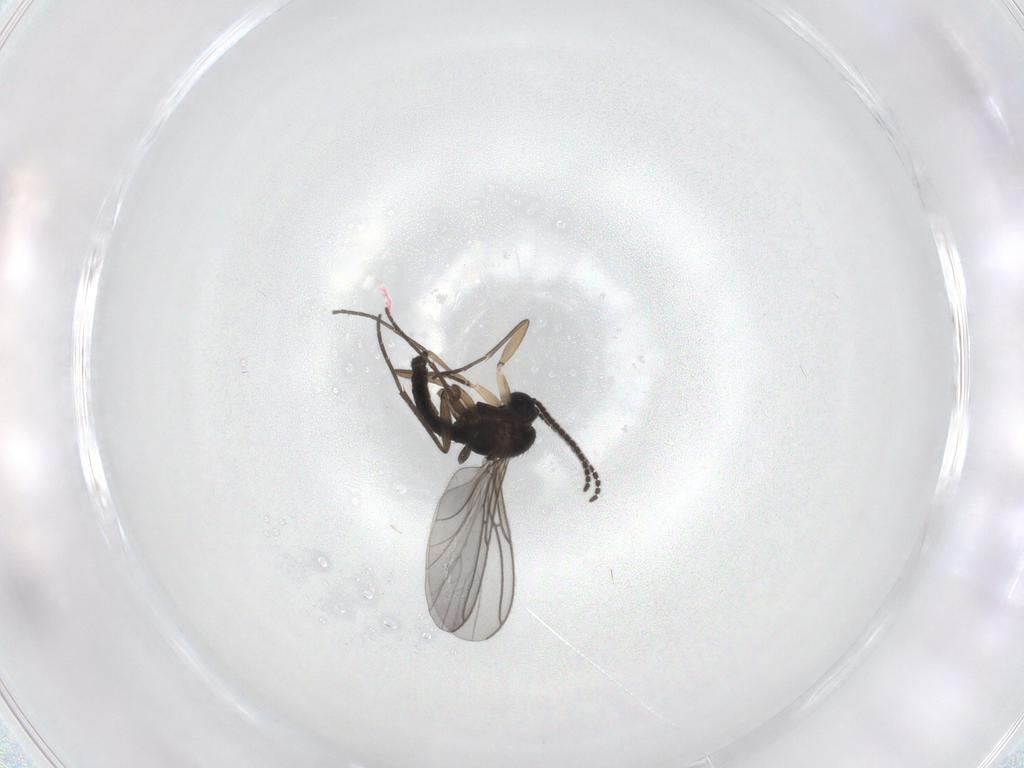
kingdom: Animalia
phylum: Arthropoda
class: Insecta
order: Diptera
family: Sciaridae
